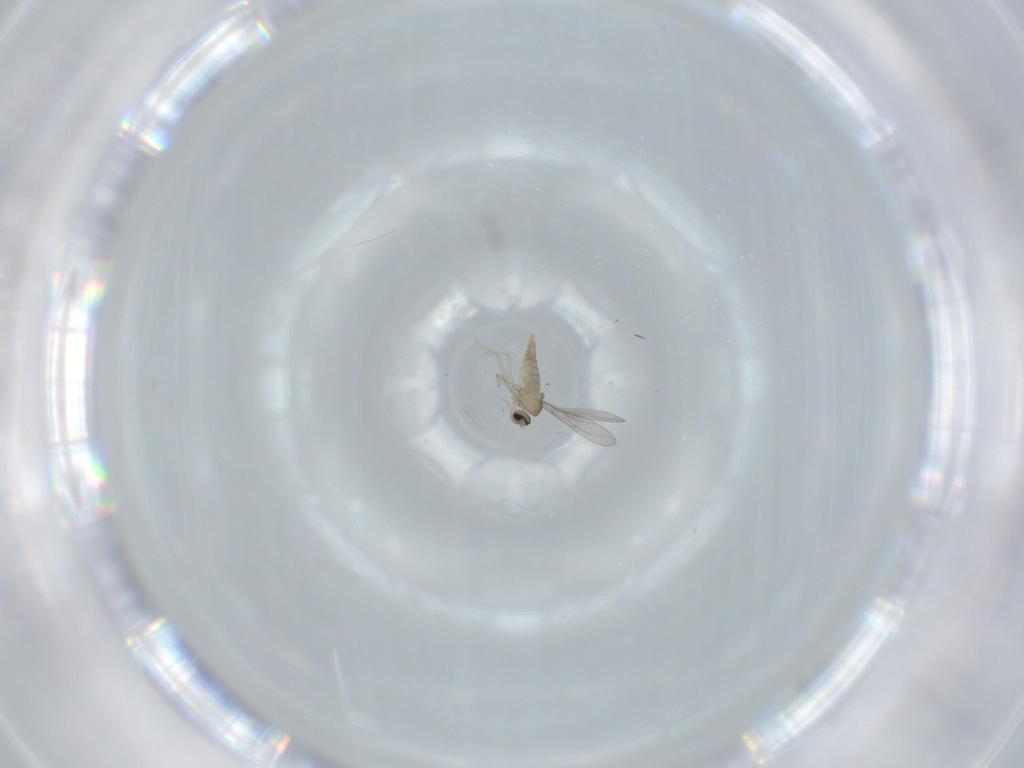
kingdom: Animalia
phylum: Arthropoda
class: Insecta
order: Diptera
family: Cecidomyiidae
